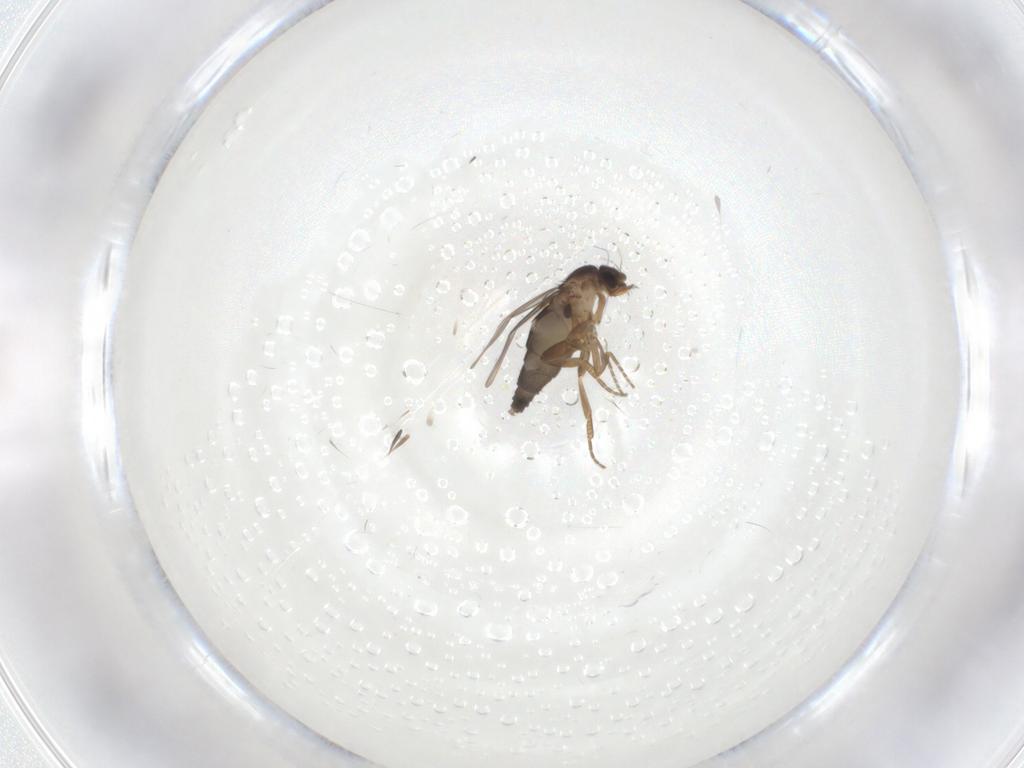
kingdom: Animalia
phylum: Arthropoda
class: Insecta
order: Diptera
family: Phoridae
